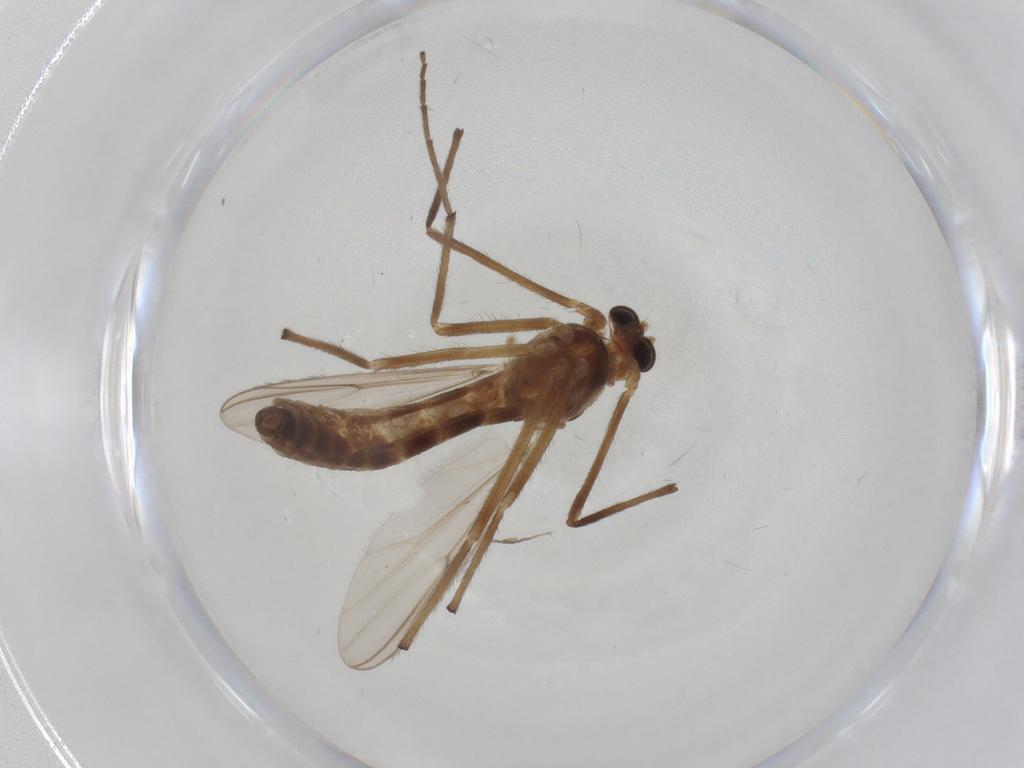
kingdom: Animalia
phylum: Arthropoda
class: Insecta
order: Diptera
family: Chironomidae
